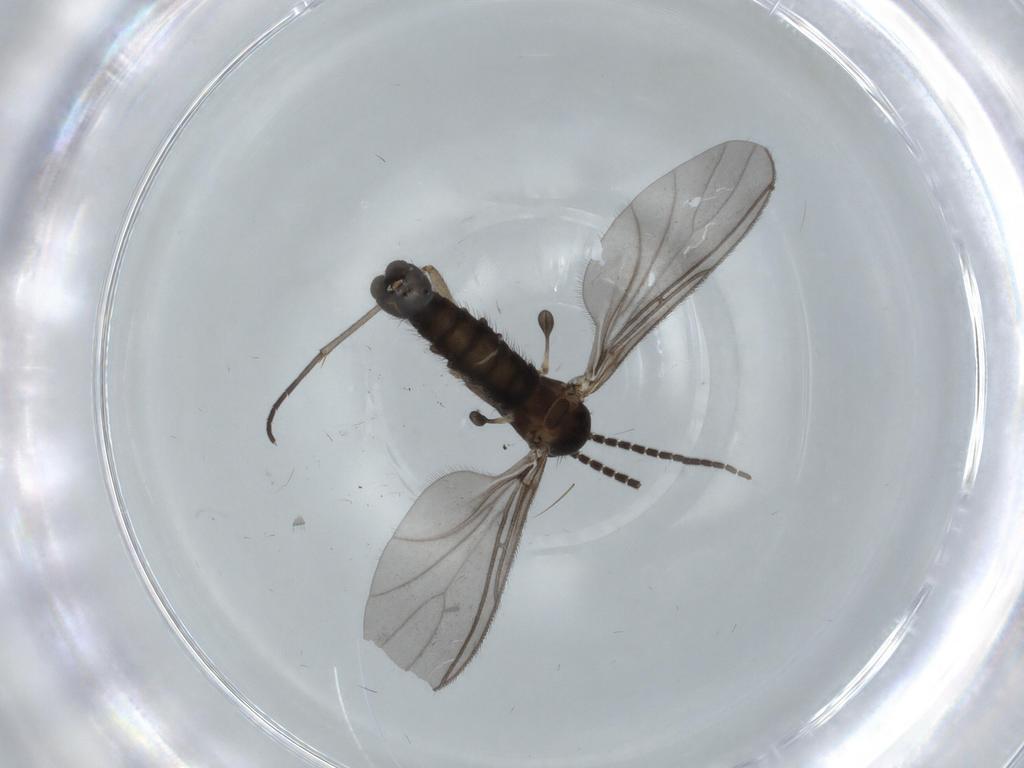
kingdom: Animalia
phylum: Arthropoda
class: Insecta
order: Diptera
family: Sciaridae
